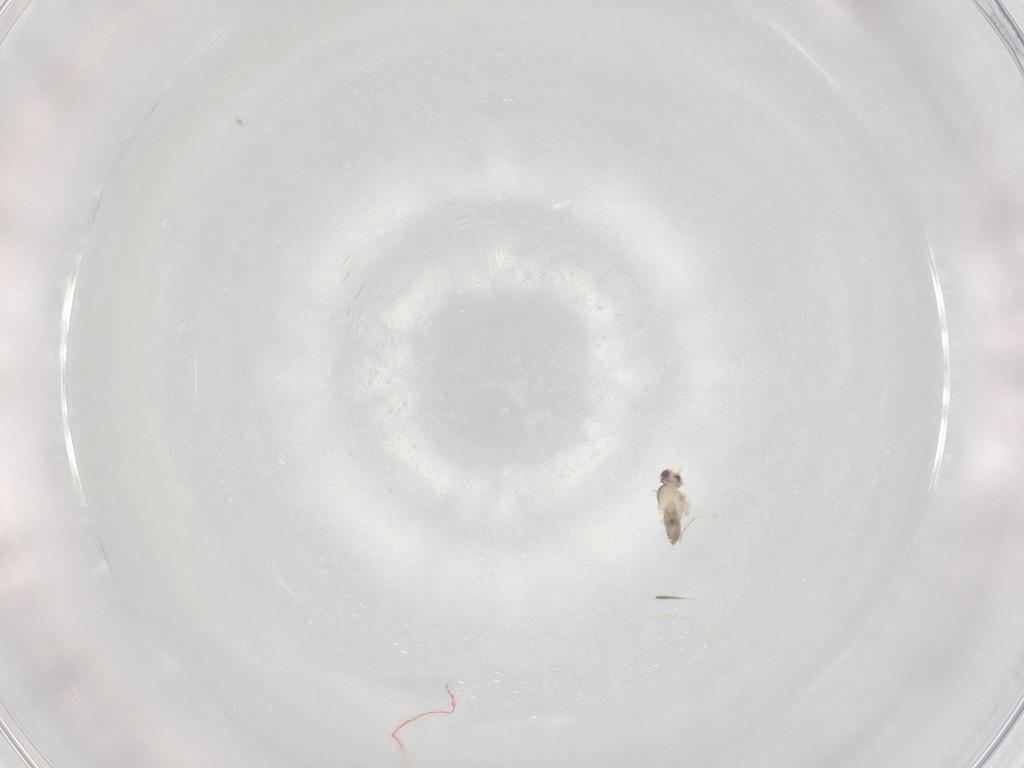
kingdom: Animalia
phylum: Arthropoda
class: Insecta
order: Diptera
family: Cecidomyiidae
